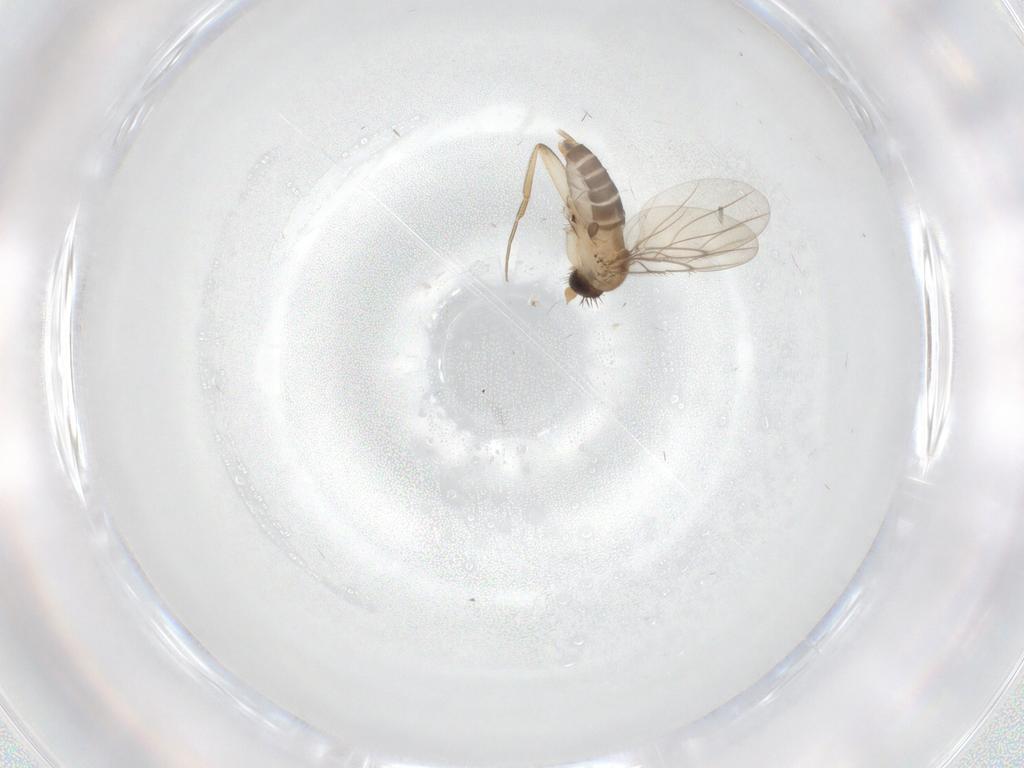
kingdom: Animalia
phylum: Arthropoda
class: Insecta
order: Diptera
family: Phoridae
